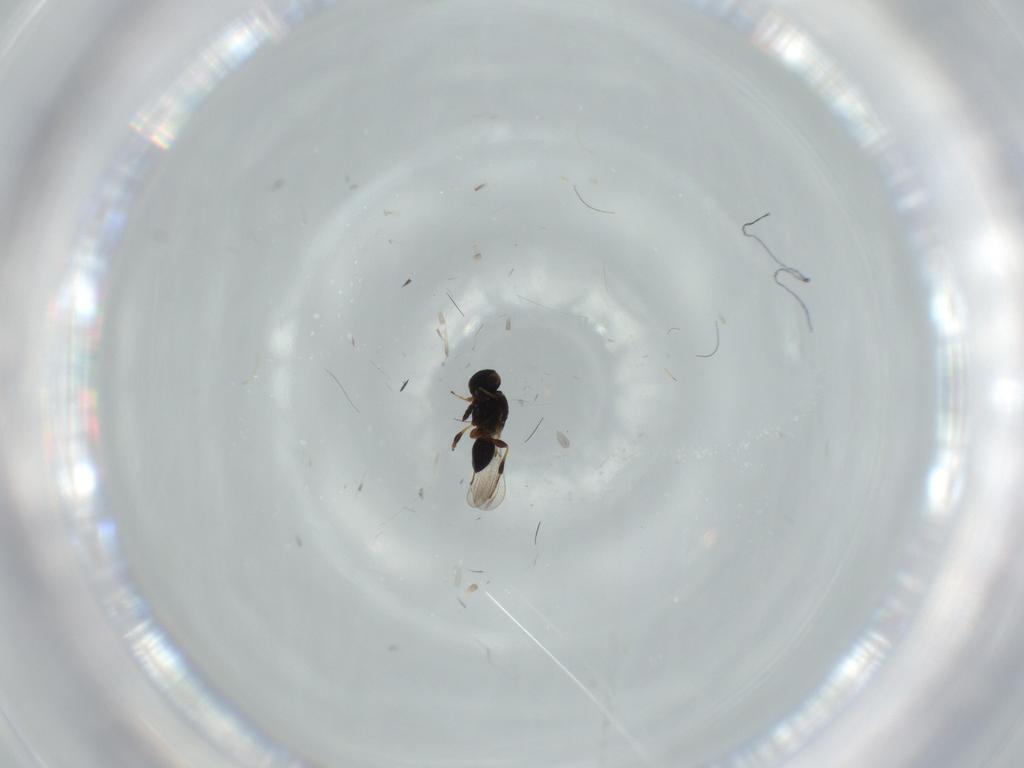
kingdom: Animalia
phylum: Arthropoda
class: Insecta
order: Hymenoptera
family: Platygastridae
